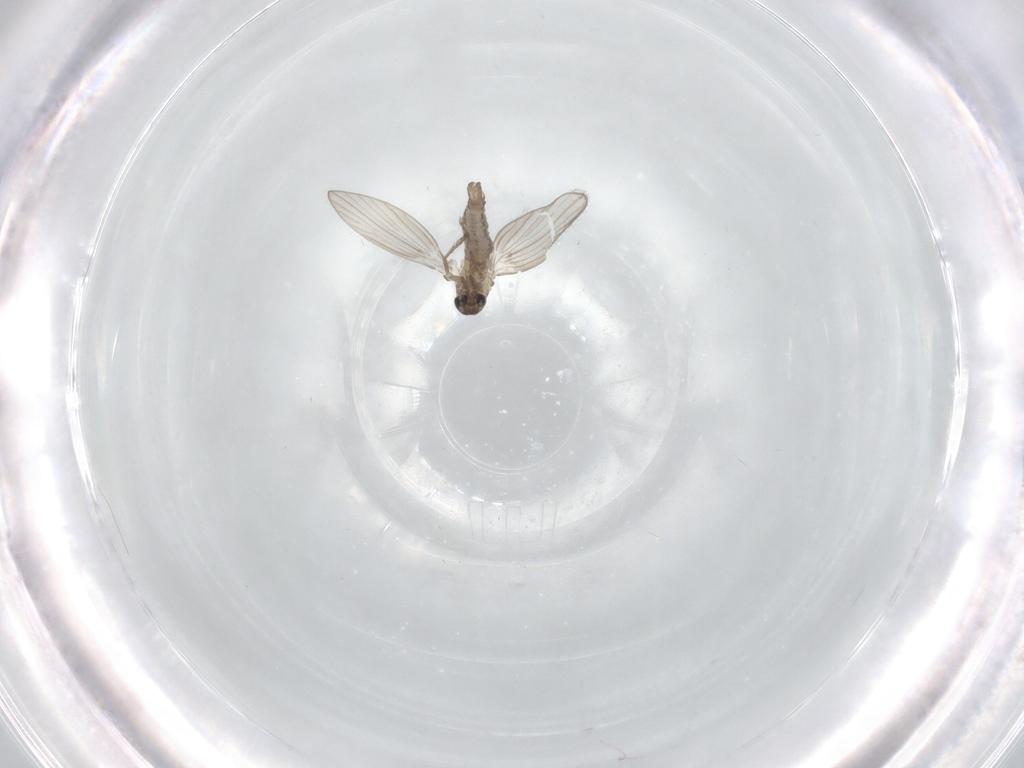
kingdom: Animalia
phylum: Arthropoda
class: Insecta
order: Diptera
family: Psychodidae
